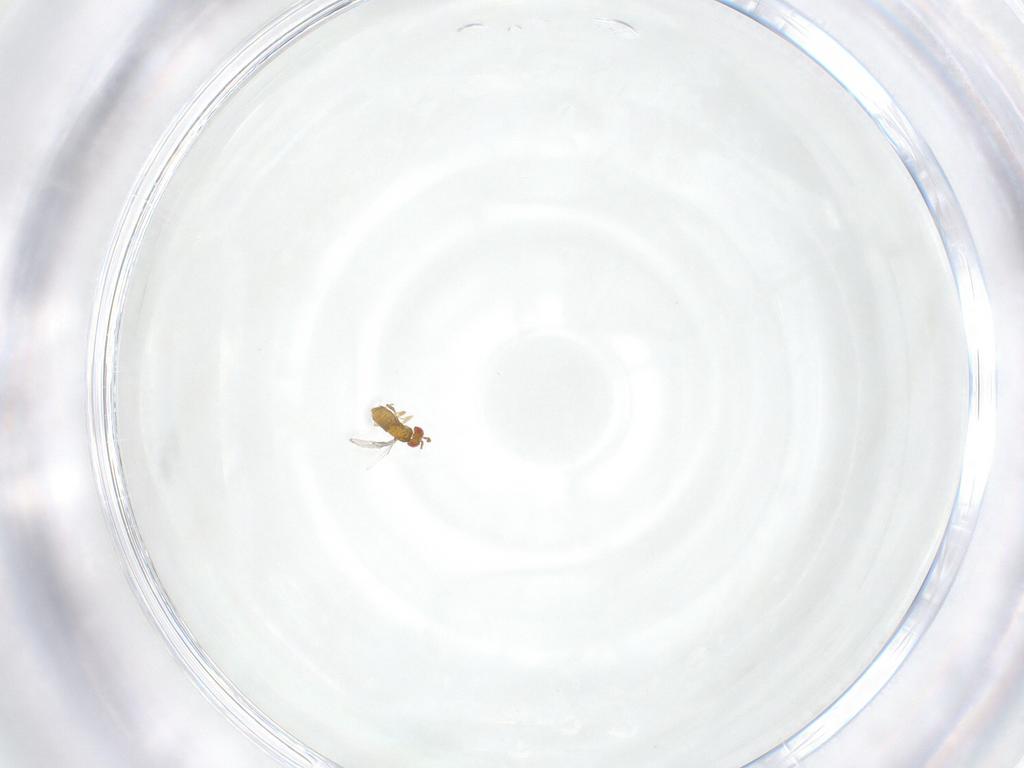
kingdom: Animalia
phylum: Arthropoda
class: Insecta
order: Hymenoptera
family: Trichogrammatidae
